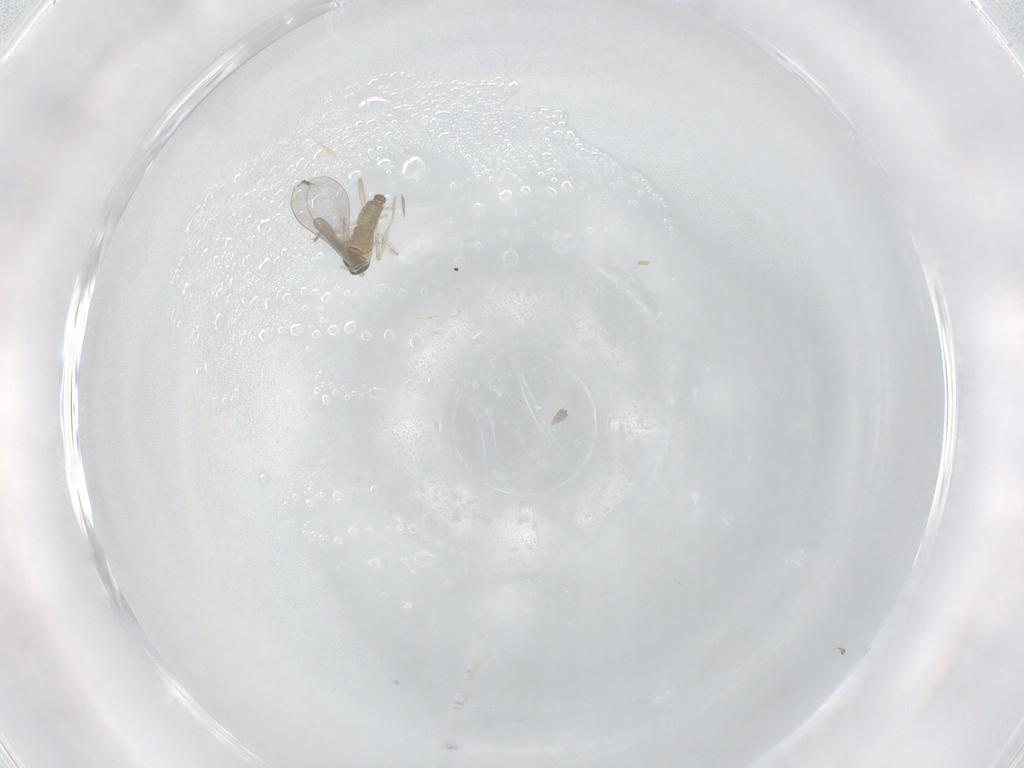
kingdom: Animalia
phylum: Arthropoda
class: Insecta
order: Diptera
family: Cecidomyiidae
